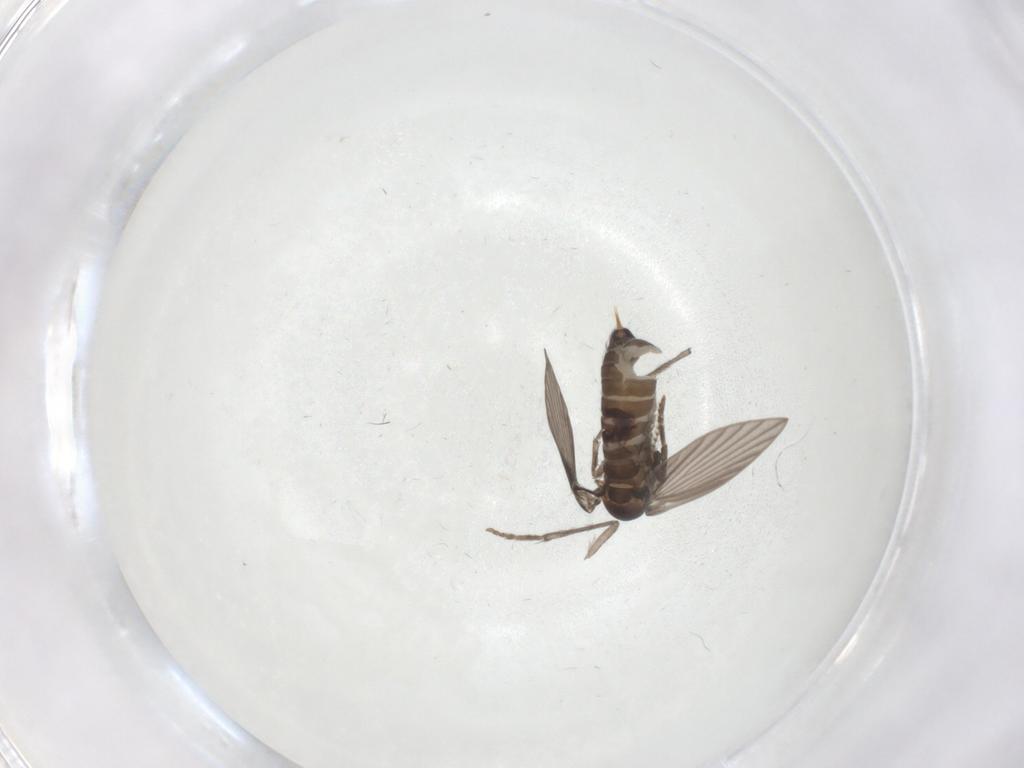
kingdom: Animalia
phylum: Arthropoda
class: Insecta
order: Diptera
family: Psychodidae
